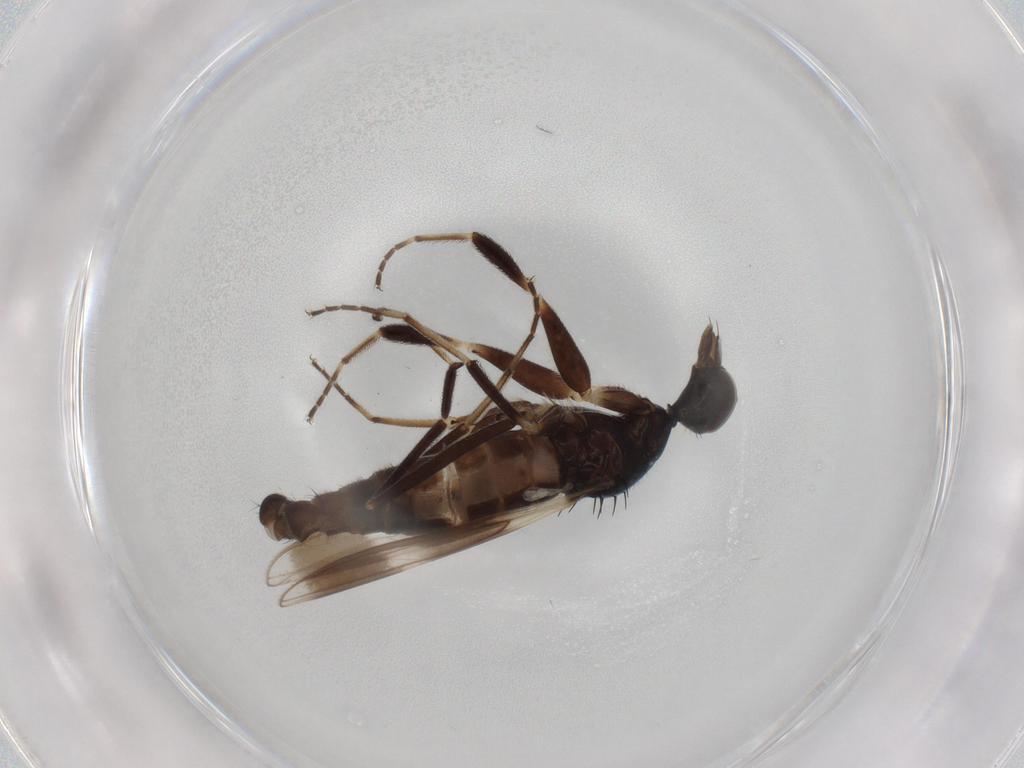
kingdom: Animalia
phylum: Arthropoda
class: Insecta
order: Diptera
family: Hybotidae
